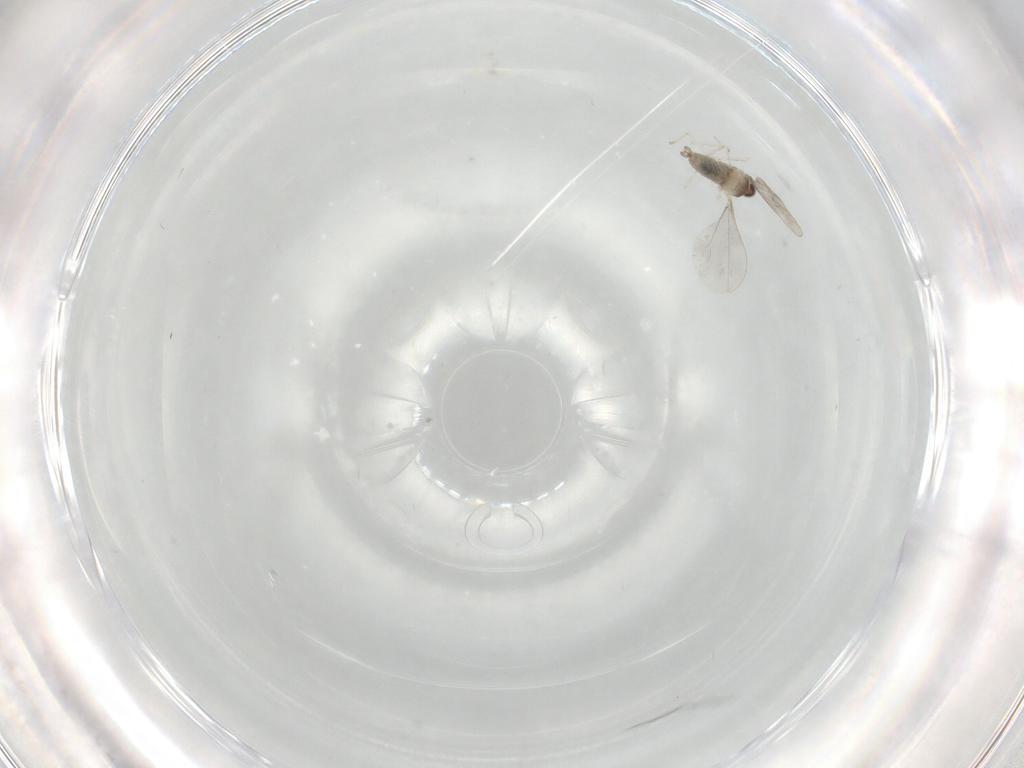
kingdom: Animalia
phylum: Arthropoda
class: Insecta
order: Diptera
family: Cecidomyiidae
